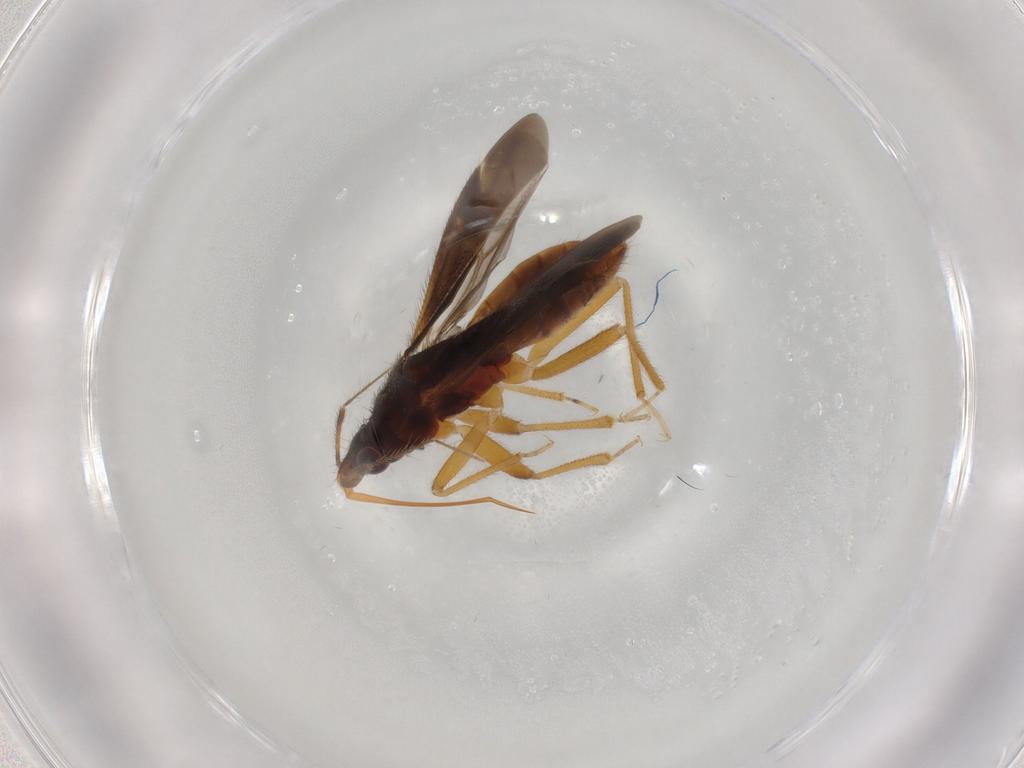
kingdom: Animalia
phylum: Arthropoda
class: Insecta
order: Hemiptera
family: Anthocoridae
